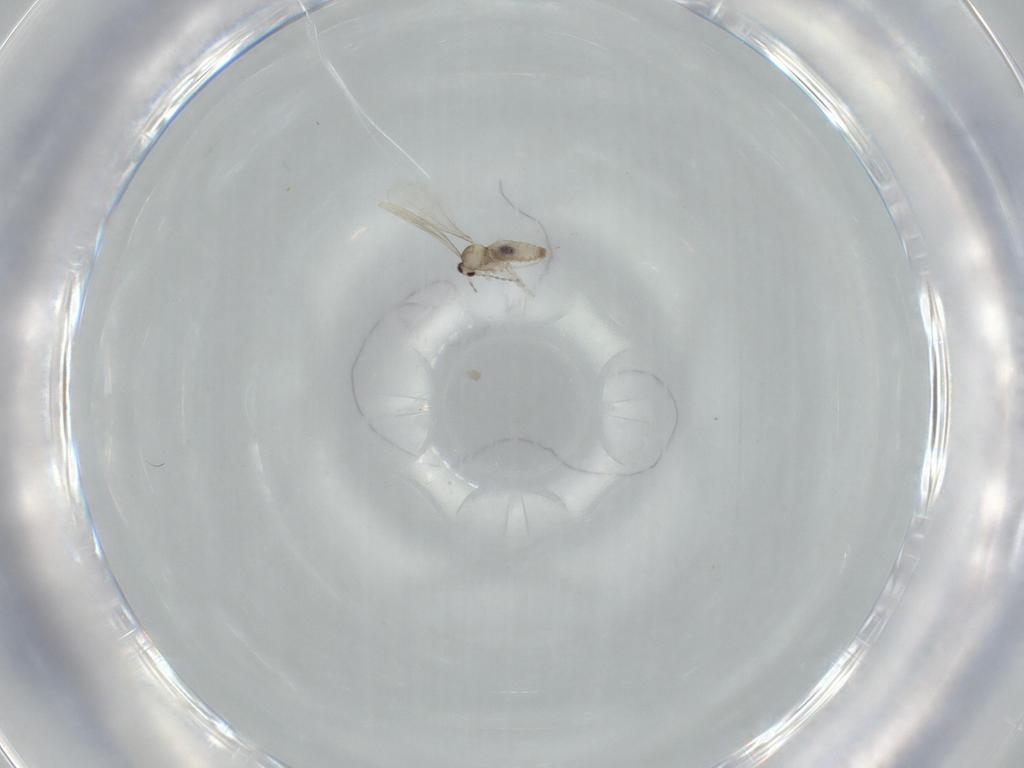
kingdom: Animalia
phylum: Arthropoda
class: Insecta
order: Diptera
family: Cecidomyiidae
